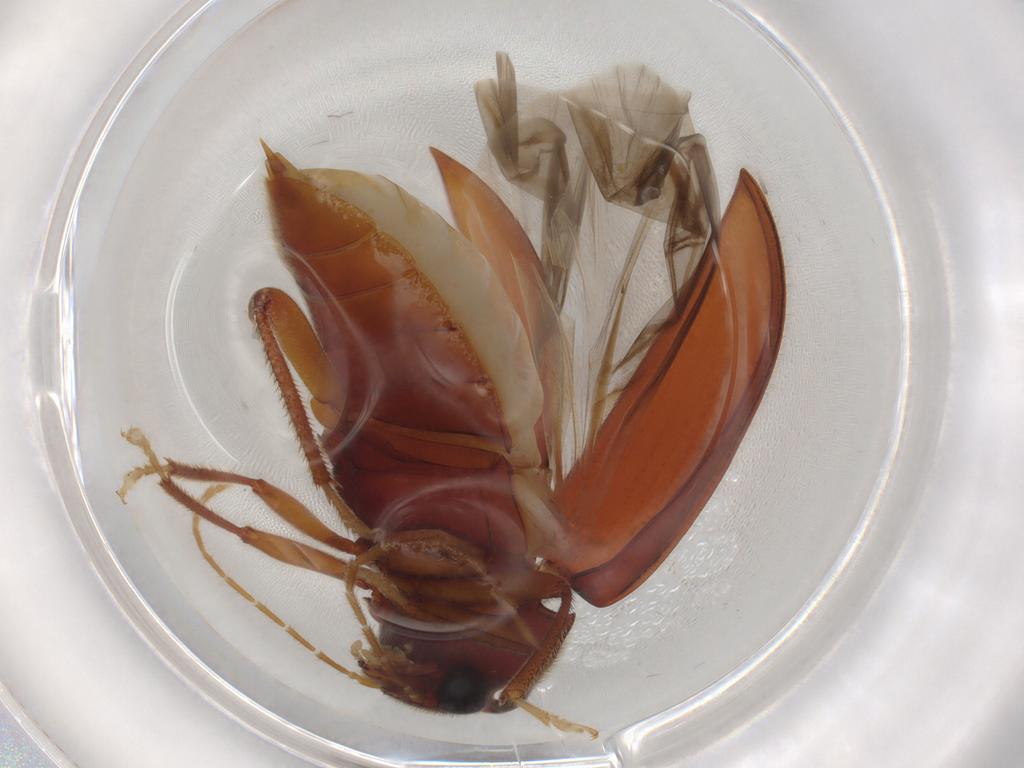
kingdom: Animalia
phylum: Arthropoda
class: Insecta
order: Coleoptera
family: Ptilodactylidae
